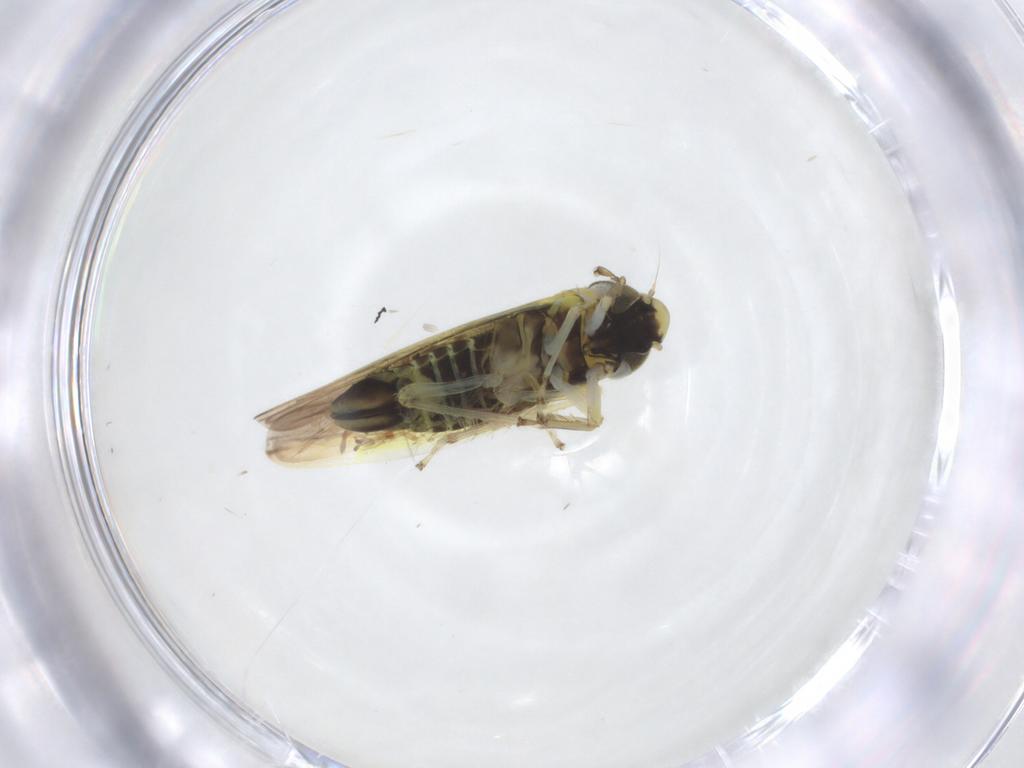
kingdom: Animalia
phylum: Arthropoda
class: Insecta
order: Hemiptera
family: Cicadellidae
